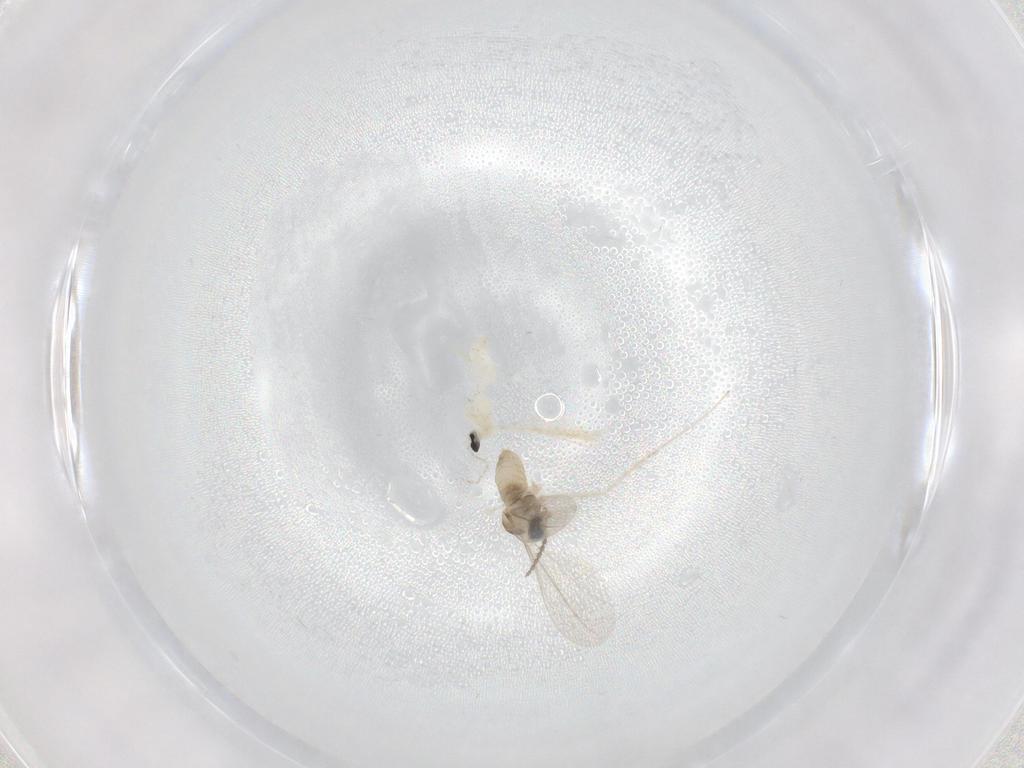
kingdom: Animalia
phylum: Arthropoda
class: Insecta
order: Diptera
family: Cecidomyiidae
